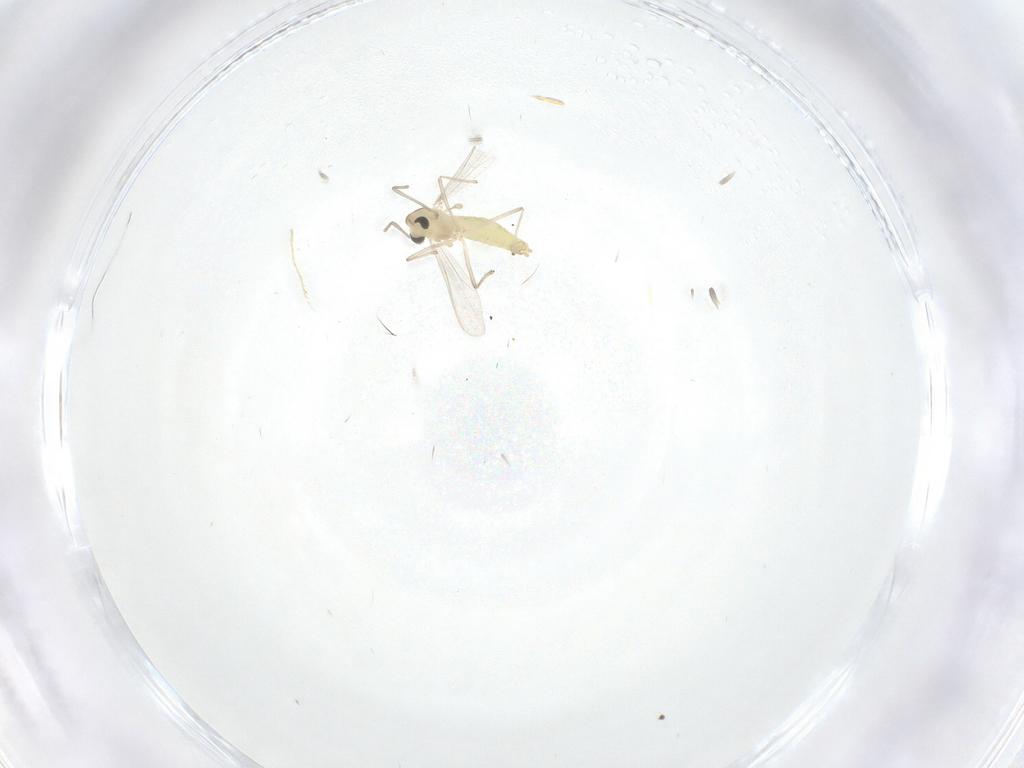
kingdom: Animalia
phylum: Arthropoda
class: Insecta
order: Diptera
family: Chironomidae
